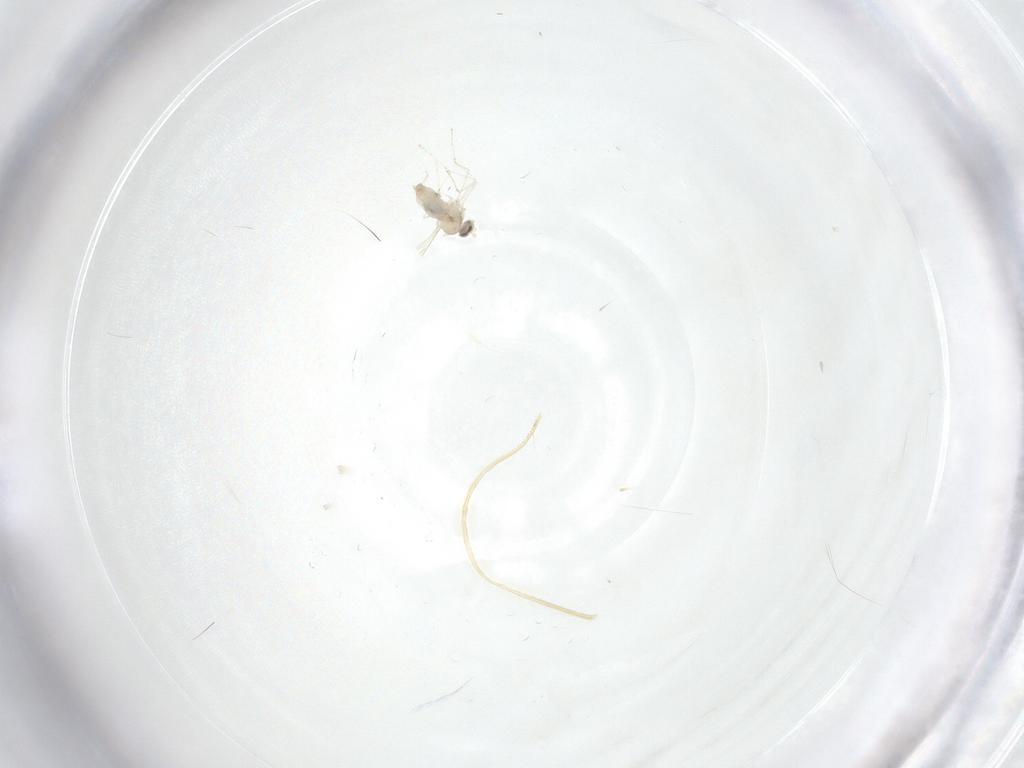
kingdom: Animalia
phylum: Arthropoda
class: Insecta
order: Diptera
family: Cecidomyiidae
